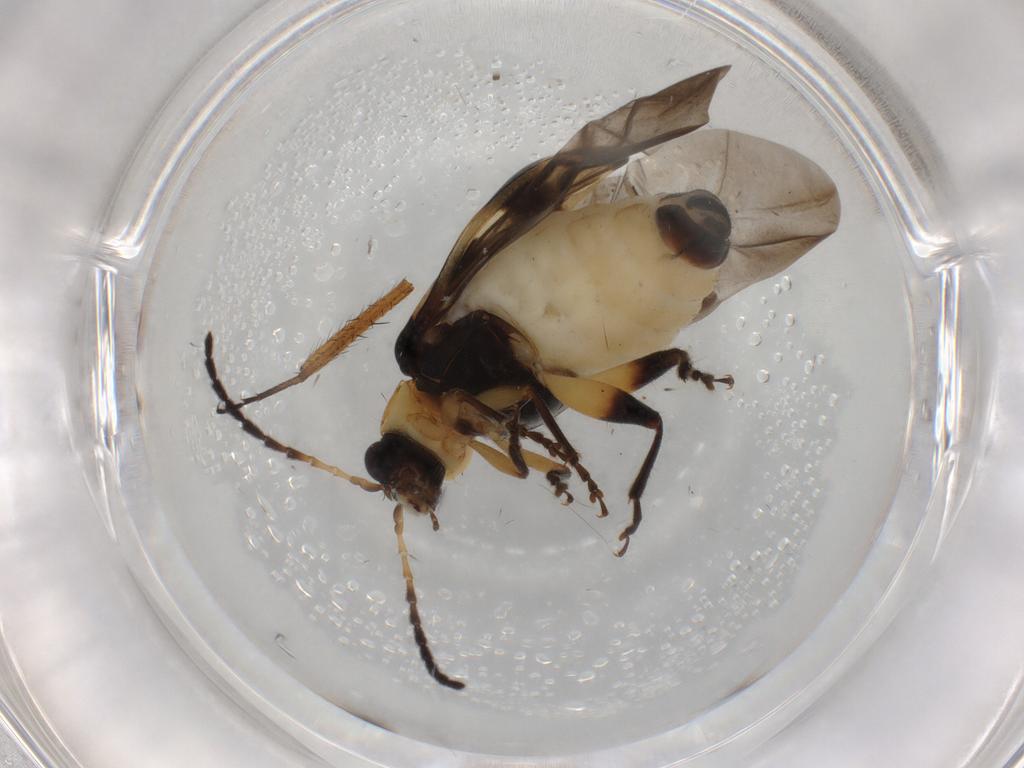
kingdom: Animalia
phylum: Arthropoda
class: Insecta
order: Coleoptera
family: Chrysomelidae
